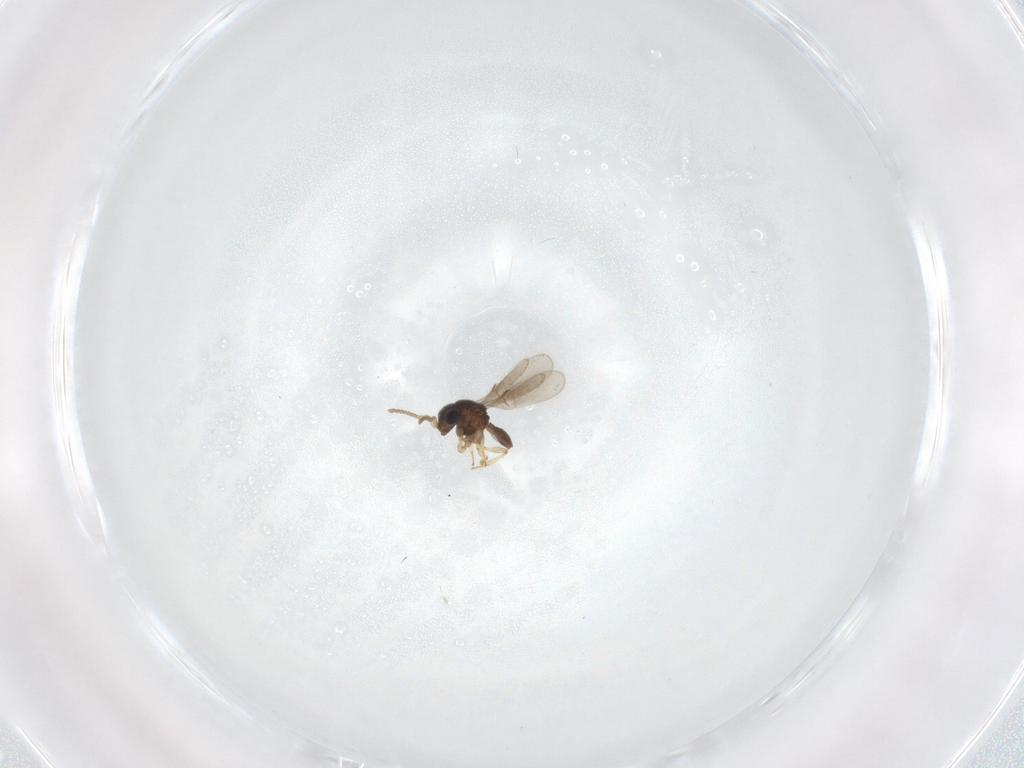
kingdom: Animalia
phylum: Arthropoda
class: Insecta
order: Hymenoptera
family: Scelionidae
